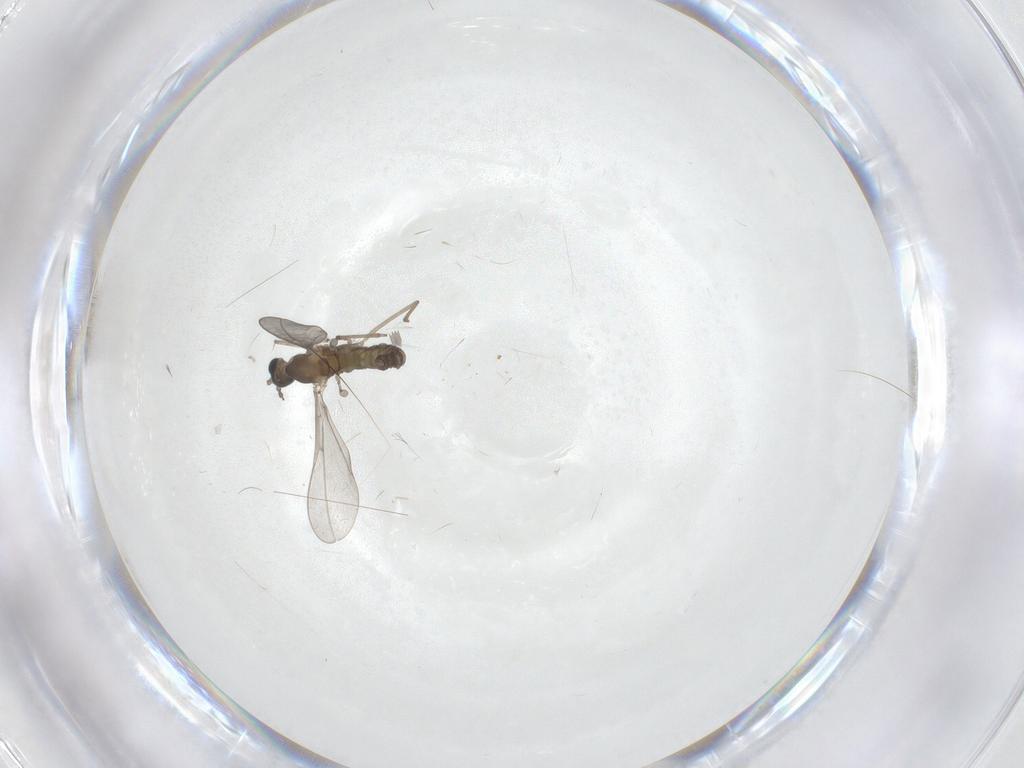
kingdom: Animalia
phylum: Arthropoda
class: Insecta
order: Diptera
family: Cecidomyiidae
